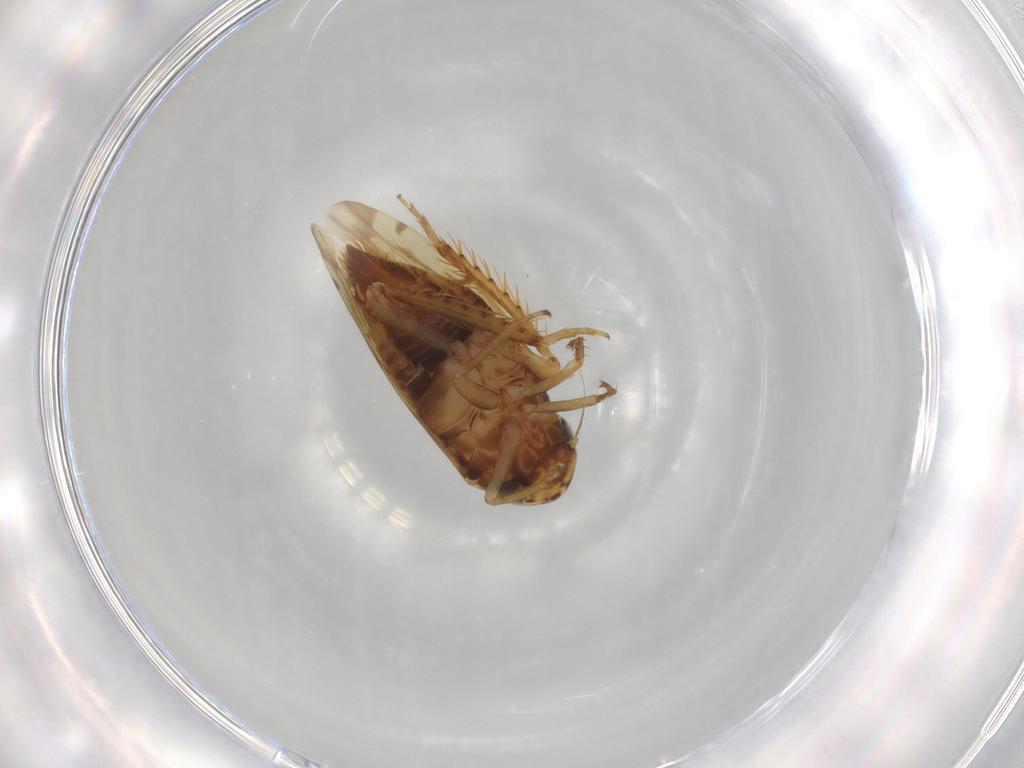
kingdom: Animalia
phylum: Arthropoda
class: Insecta
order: Hemiptera
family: Cicadellidae
